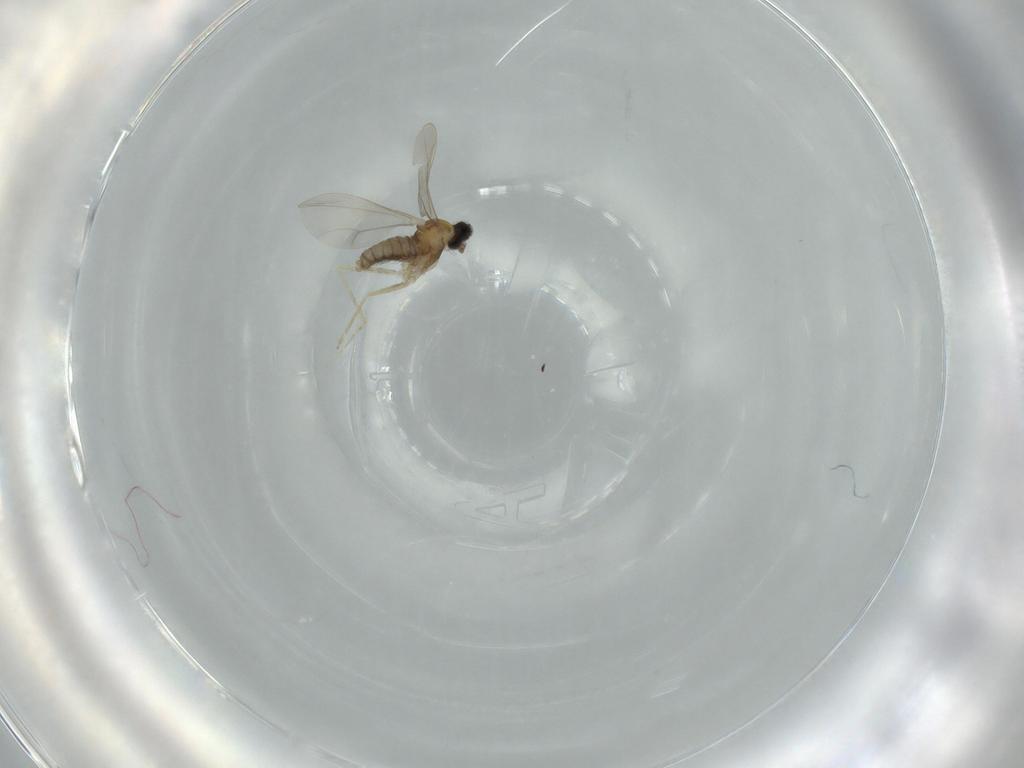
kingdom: Animalia
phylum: Arthropoda
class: Insecta
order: Diptera
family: Cecidomyiidae
